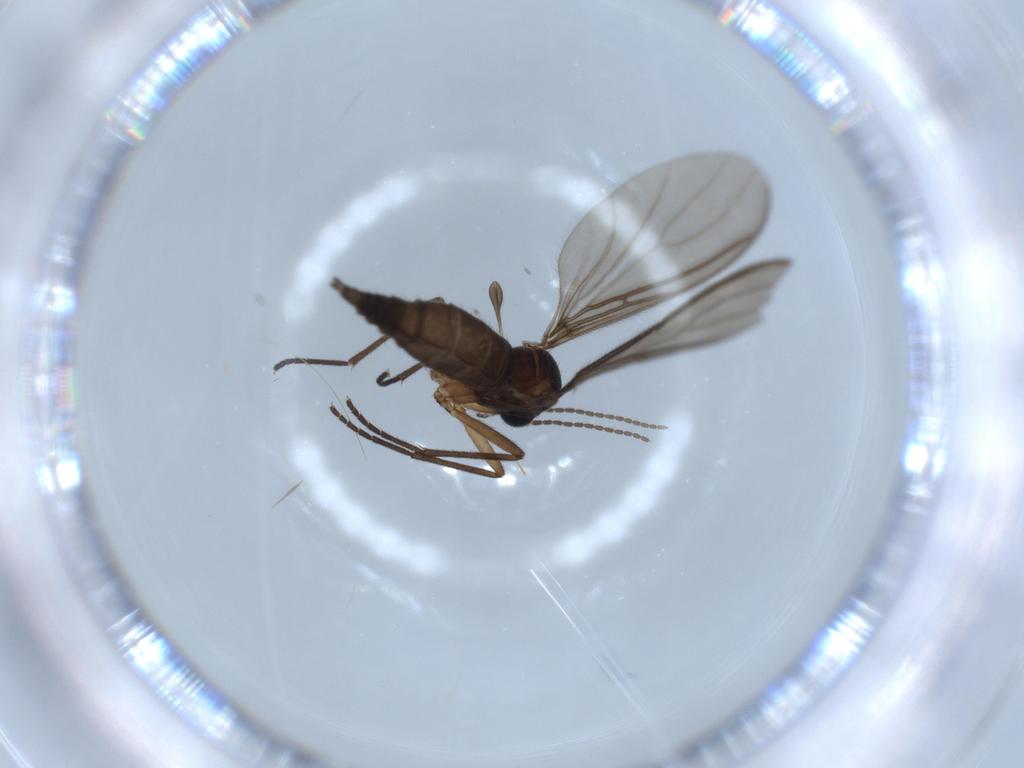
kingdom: Animalia
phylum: Arthropoda
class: Insecta
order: Diptera
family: Sciaridae
